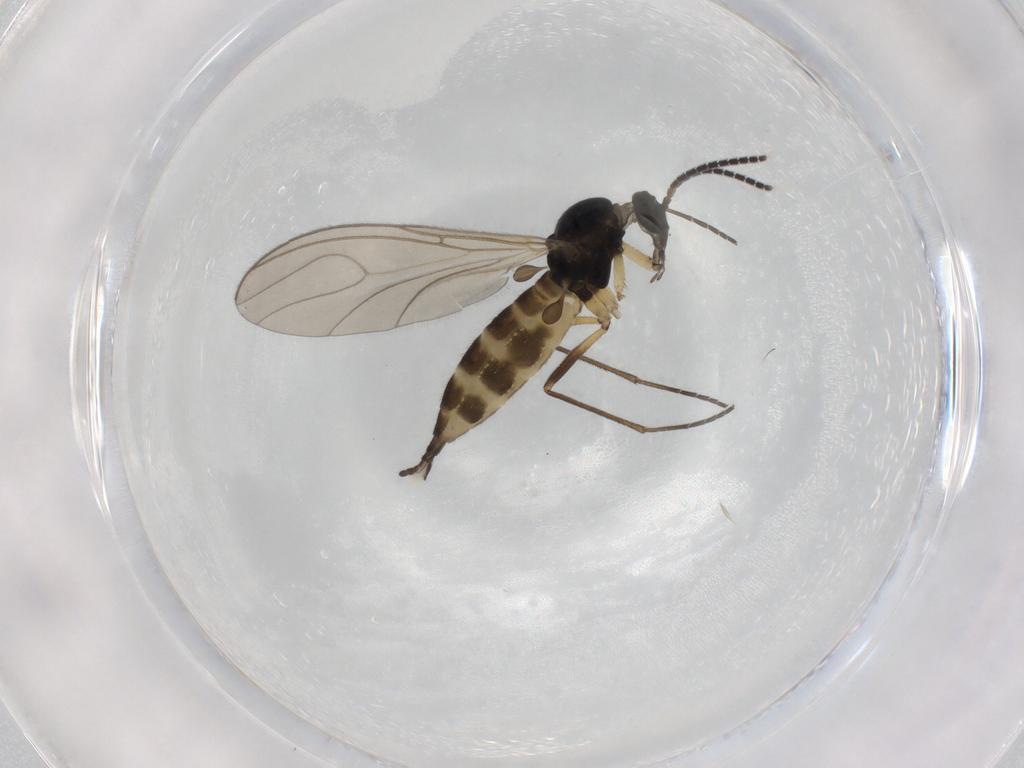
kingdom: Animalia
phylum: Arthropoda
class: Insecta
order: Diptera
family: Sciaridae
